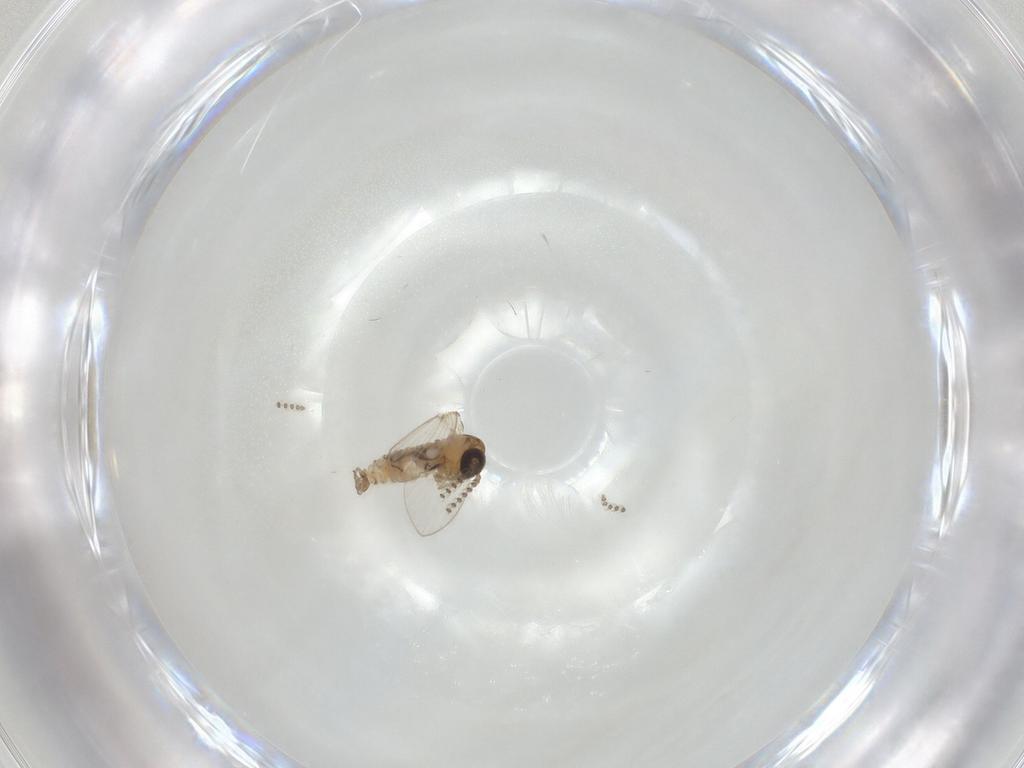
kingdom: Animalia
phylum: Arthropoda
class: Insecta
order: Diptera
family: Psychodidae
